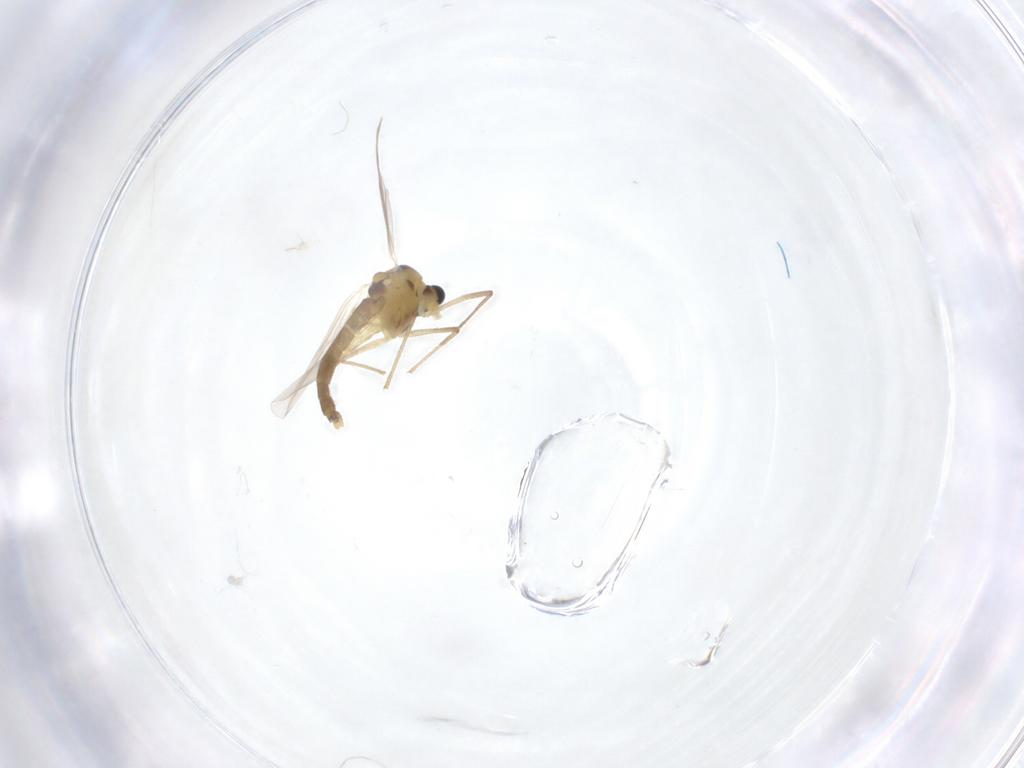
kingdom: Animalia
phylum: Arthropoda
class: Insecta
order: Diptera
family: Chironomidae
